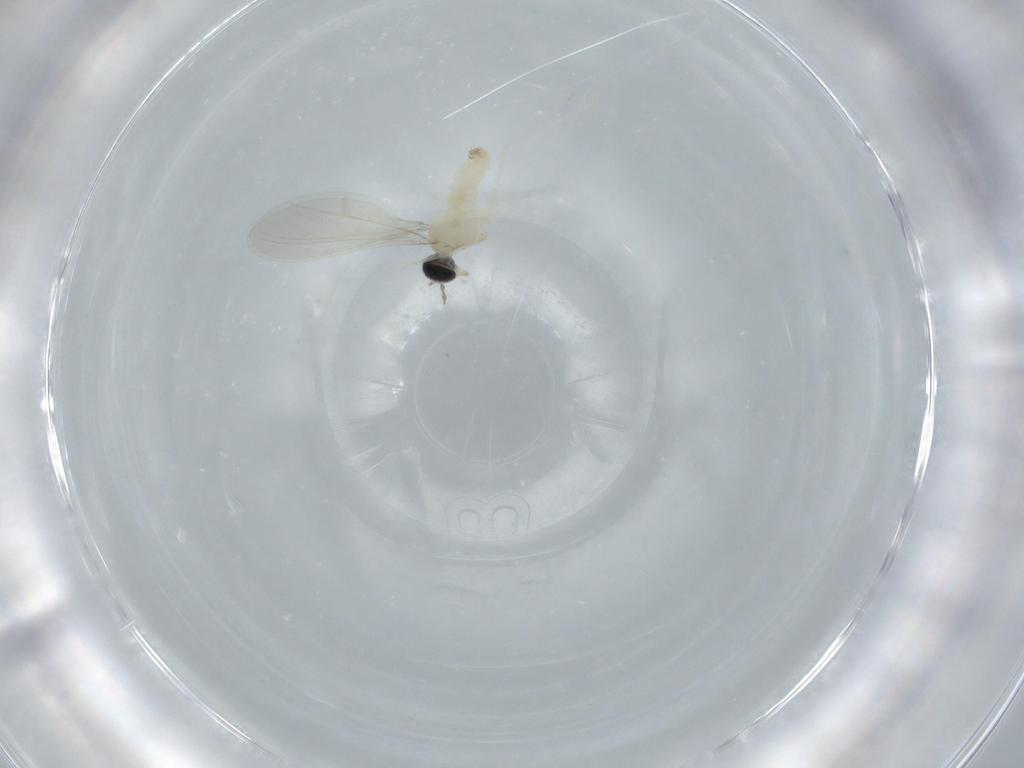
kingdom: Animalia
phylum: Arthropoda
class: Insecta
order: Diptera
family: Cecidomyiidae
